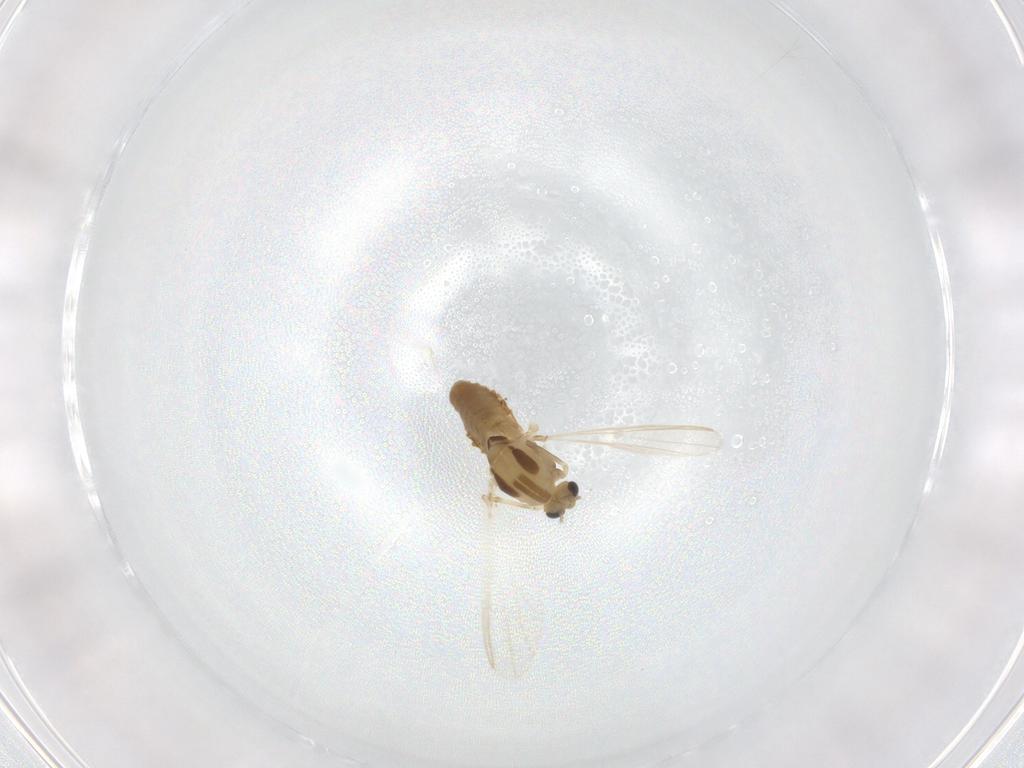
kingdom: Animalia
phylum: Arthropoda
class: Insecta
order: Diptera
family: Chironomidae
